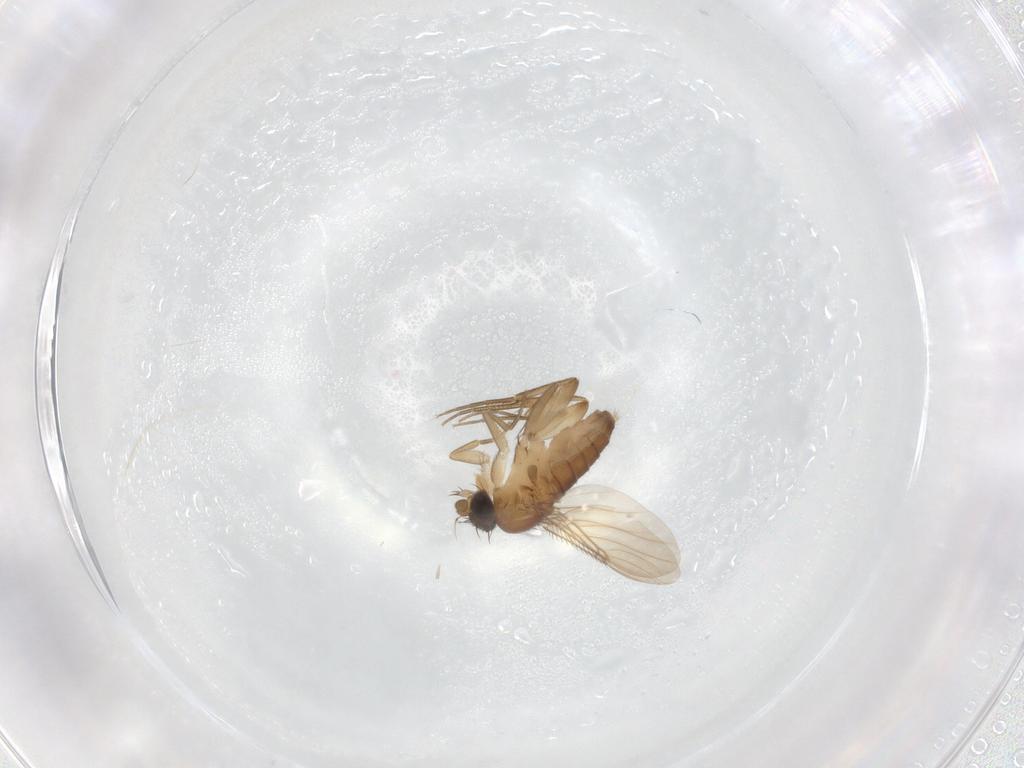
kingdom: Animalia
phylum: Arthropoda
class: Insecta
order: Diptera
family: Phoridae
